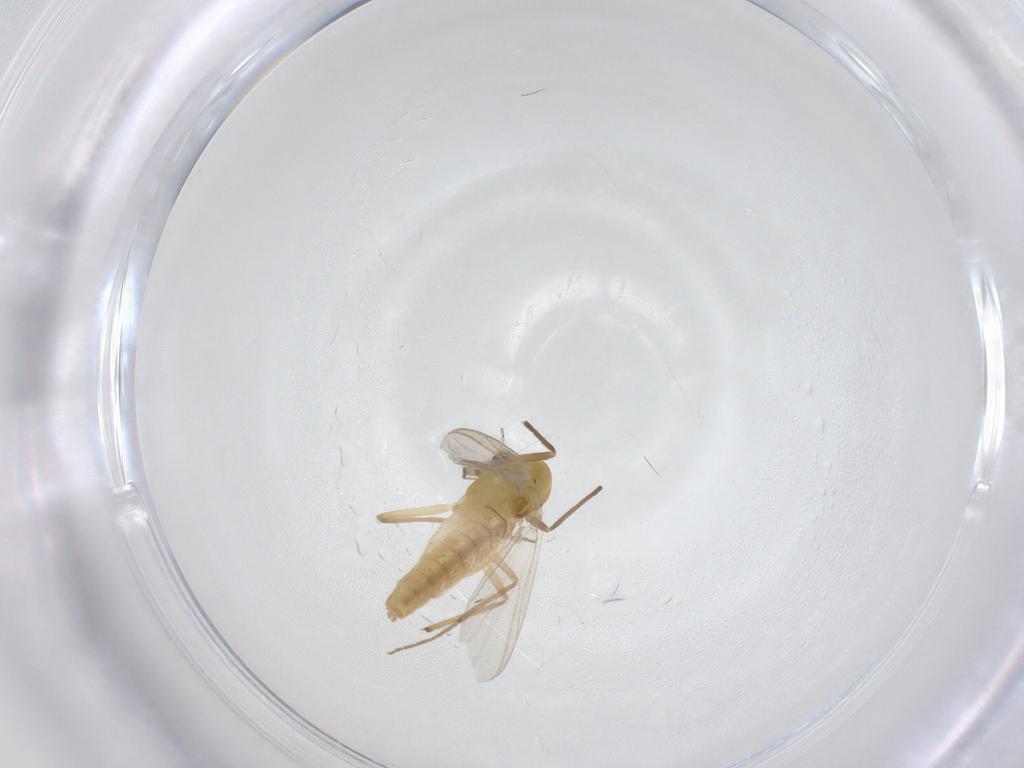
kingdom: Animalia
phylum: Arthropoda
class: Insecta
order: Diptera
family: Chironomidae
